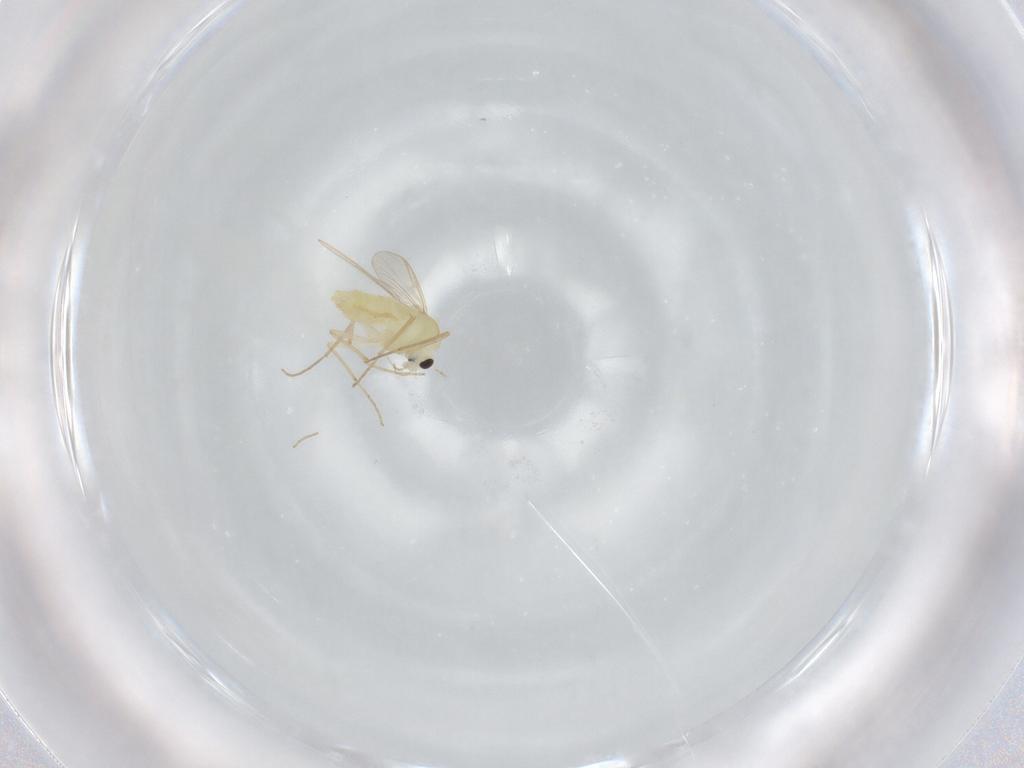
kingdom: Animalia
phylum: Arthropoda
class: Insecta
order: Diptera
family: Chironomidae
